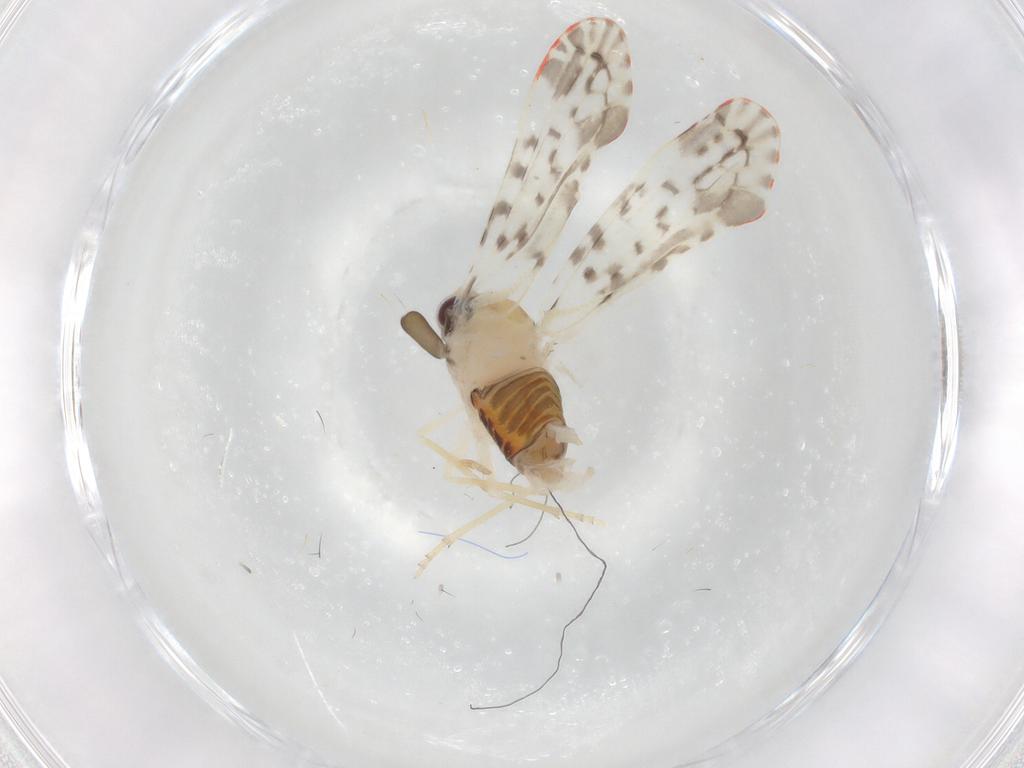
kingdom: Animalia
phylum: Arthropoda
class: Insecta
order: Hemiptera
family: Derbidae
